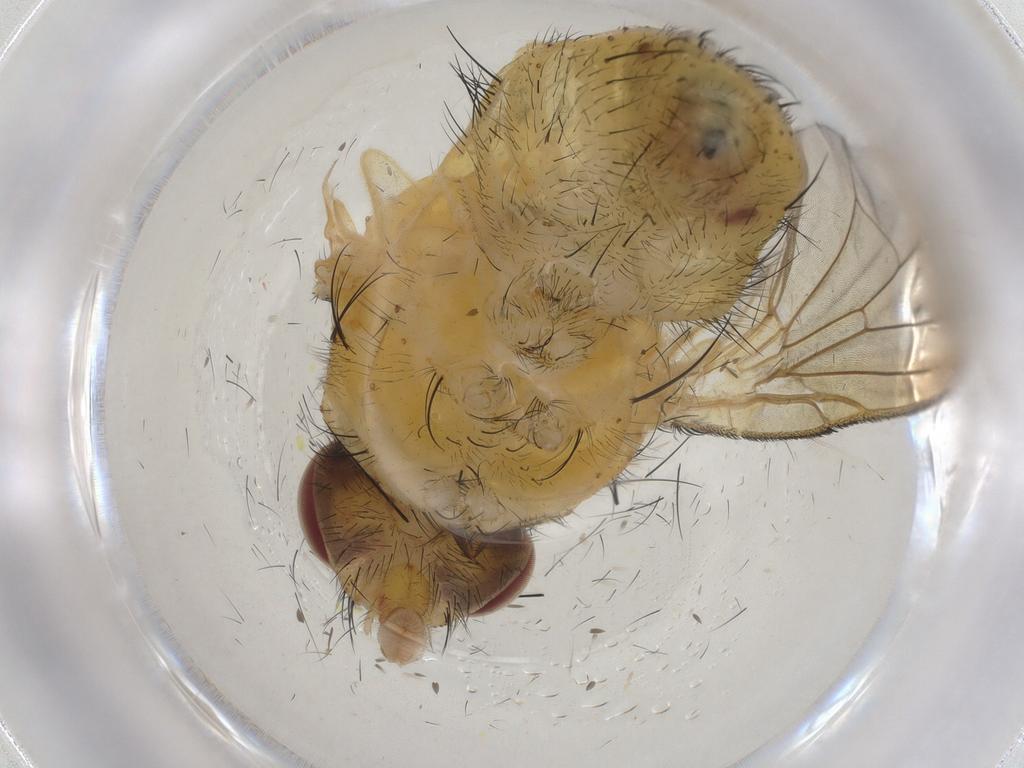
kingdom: Animalia
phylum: Arthropoda
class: Insecta
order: Diptera
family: Muscidae
